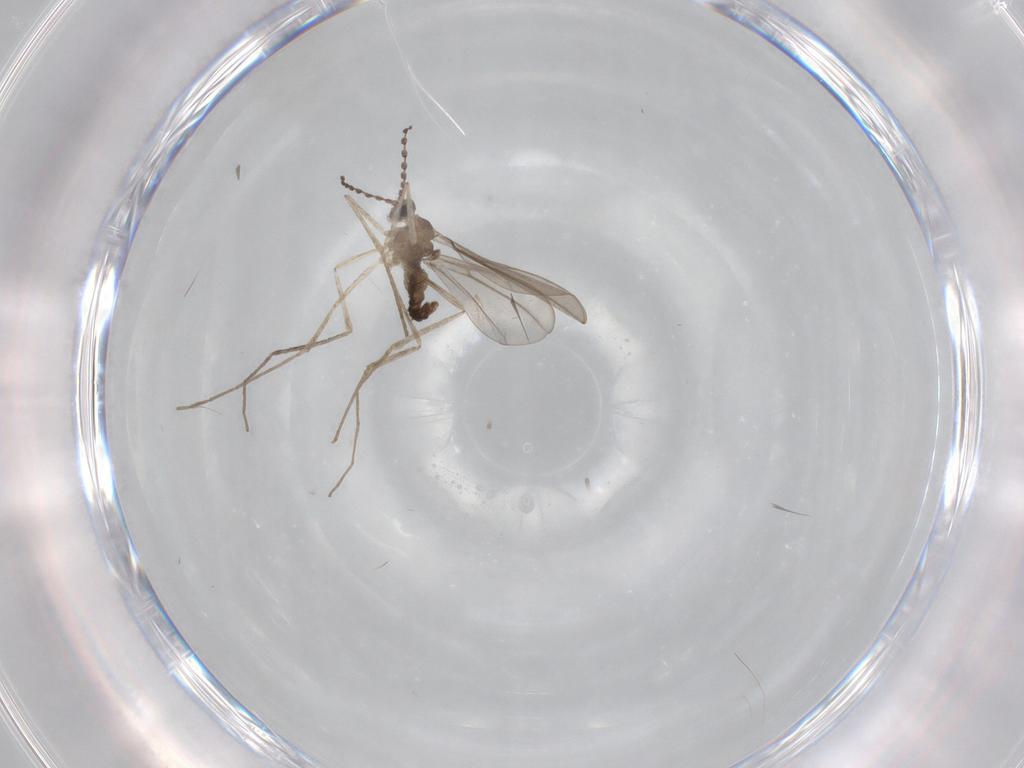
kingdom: Animalia
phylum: Arthropoda
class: Insecta
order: Diptera
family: Cecidomyiidae
